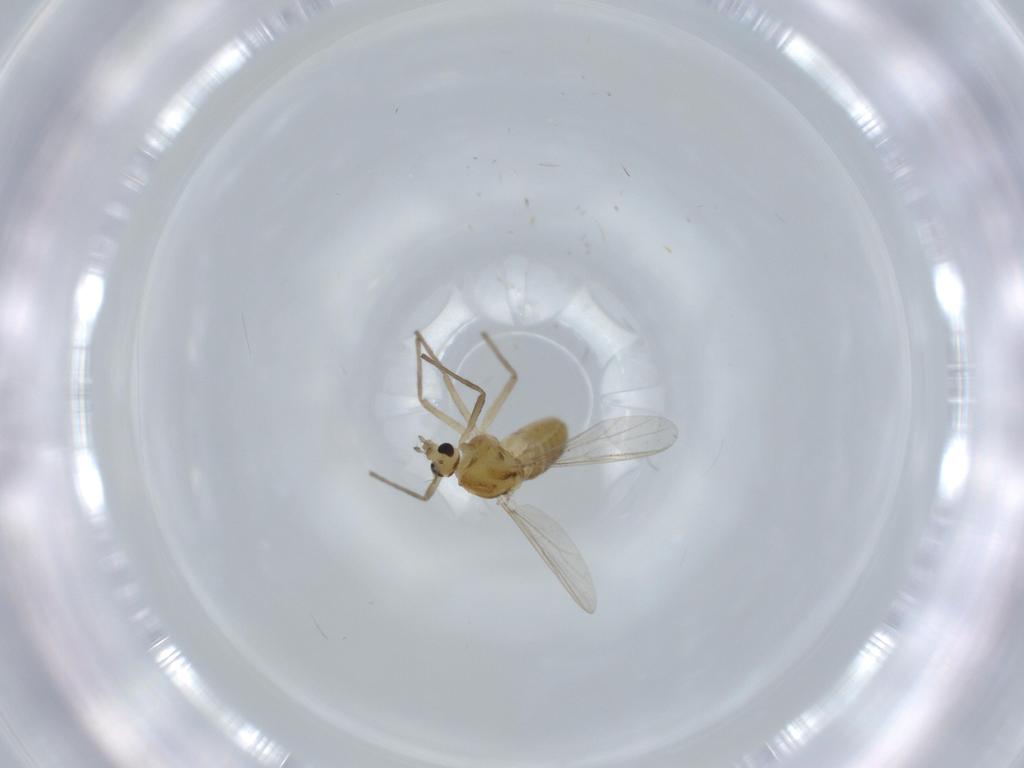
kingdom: Animalia
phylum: Arthropoda
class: Insecta
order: Diptera
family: Chironomidae
